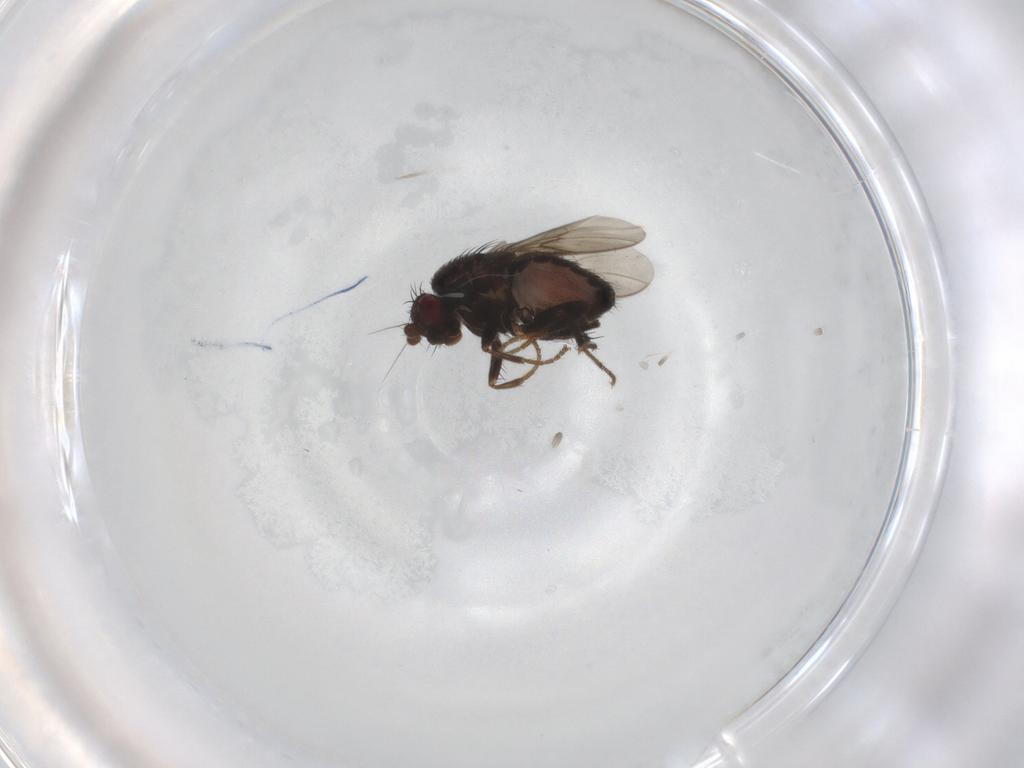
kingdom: Animalia
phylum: Arthropoda
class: Insecta
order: Diptera
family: Sphaeroceridae
